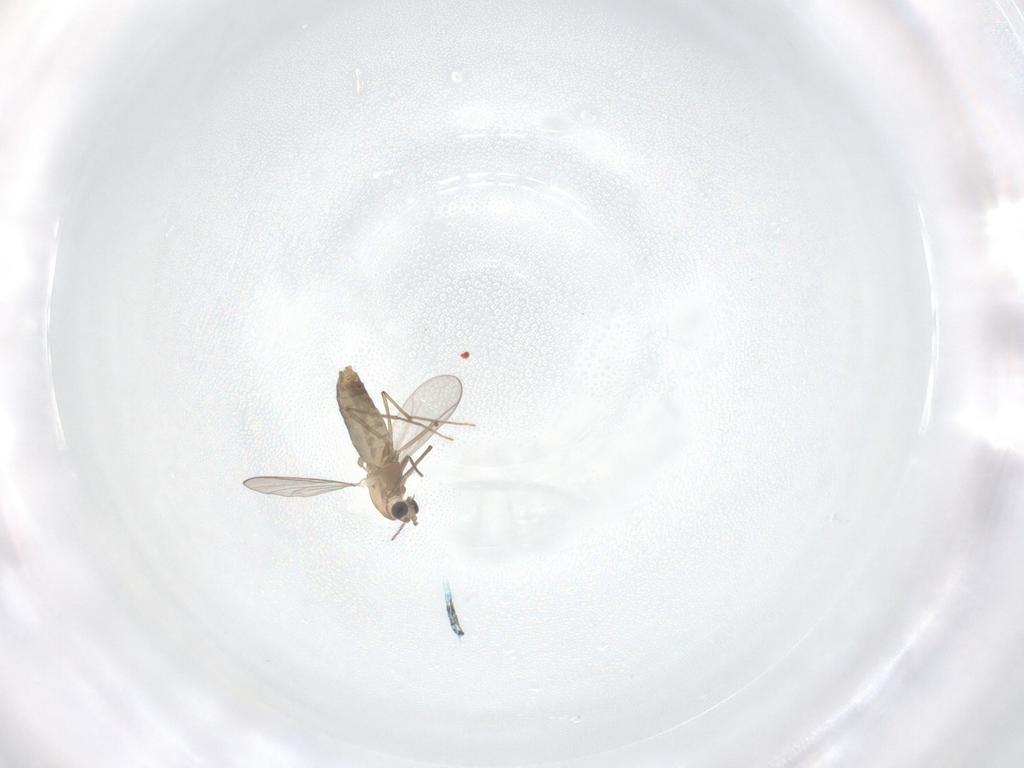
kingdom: Animalia
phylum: Arthropoda
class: Insecta
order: Diptera
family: Chironomidae
